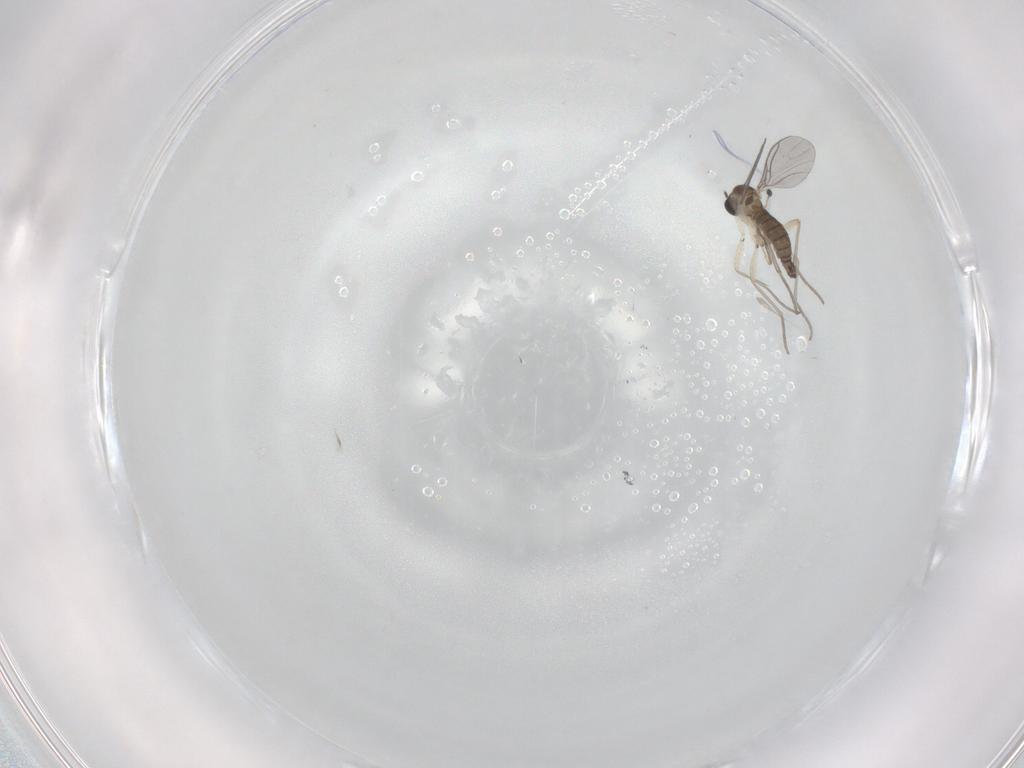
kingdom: Animalia
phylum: Arthropoda
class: Insecta
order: Diptera
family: Sciaridae
